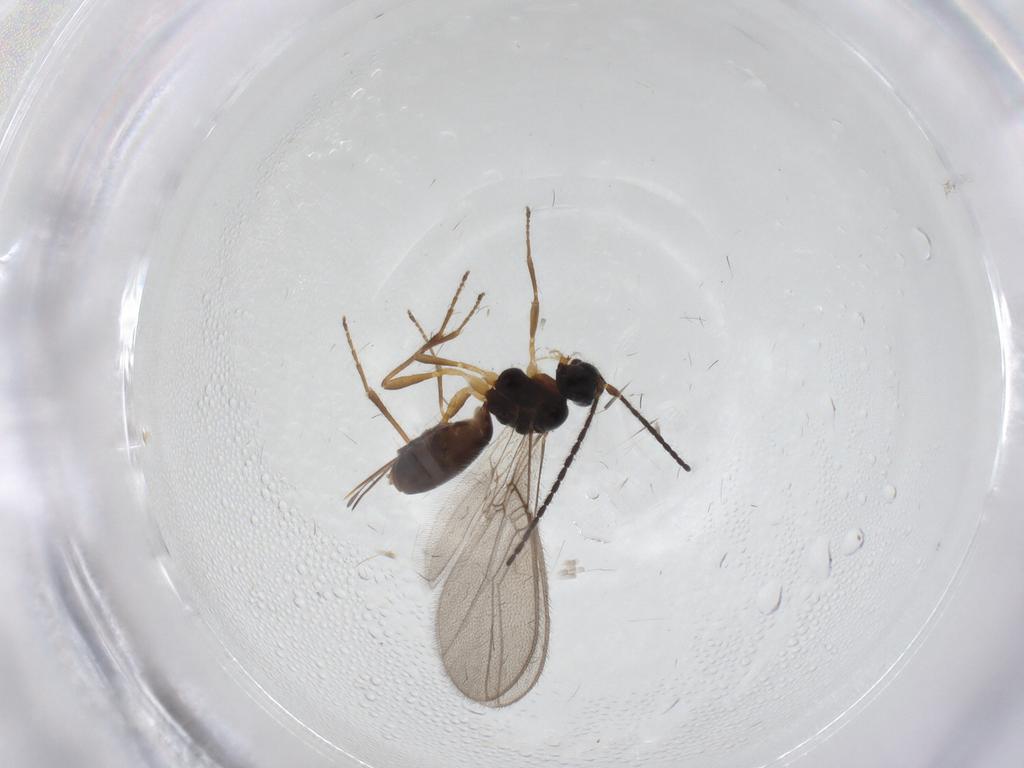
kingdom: Animalia
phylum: Arthropoda
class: Insecta
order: Hymenoptera
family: Braconidae
